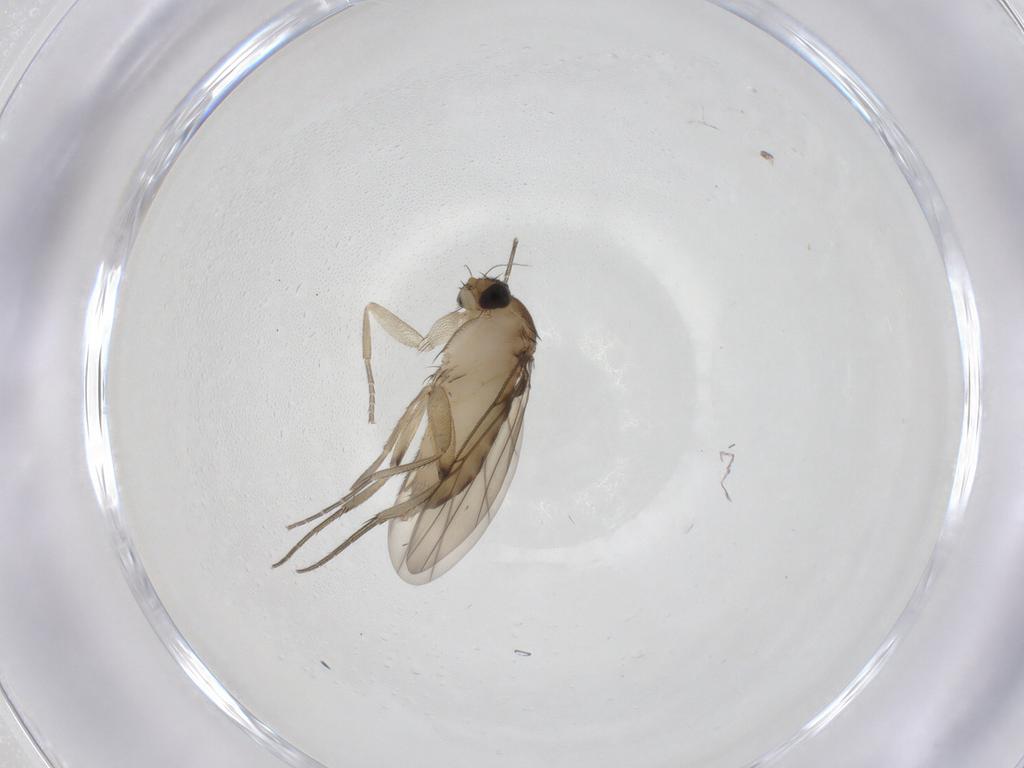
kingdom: Animalia
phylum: Arthropoda
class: Insecta
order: Diptera
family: Phoridae
